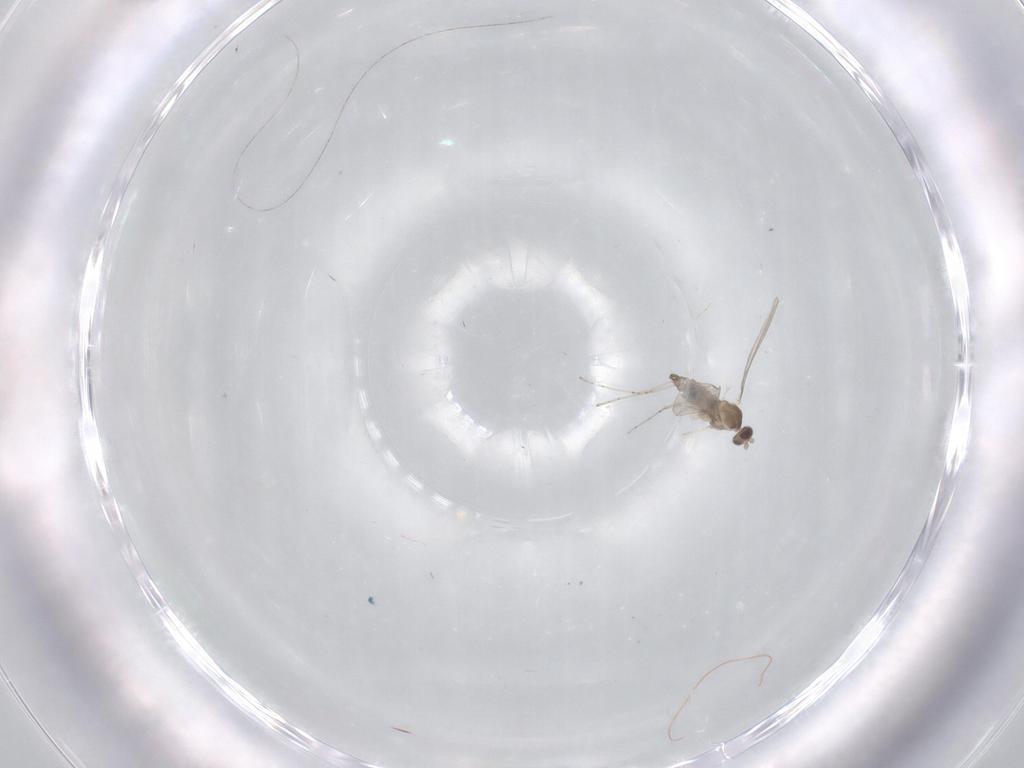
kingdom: Animalia
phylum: Arthropoda
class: Insecta
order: Diptera
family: Cecidomyiidae
